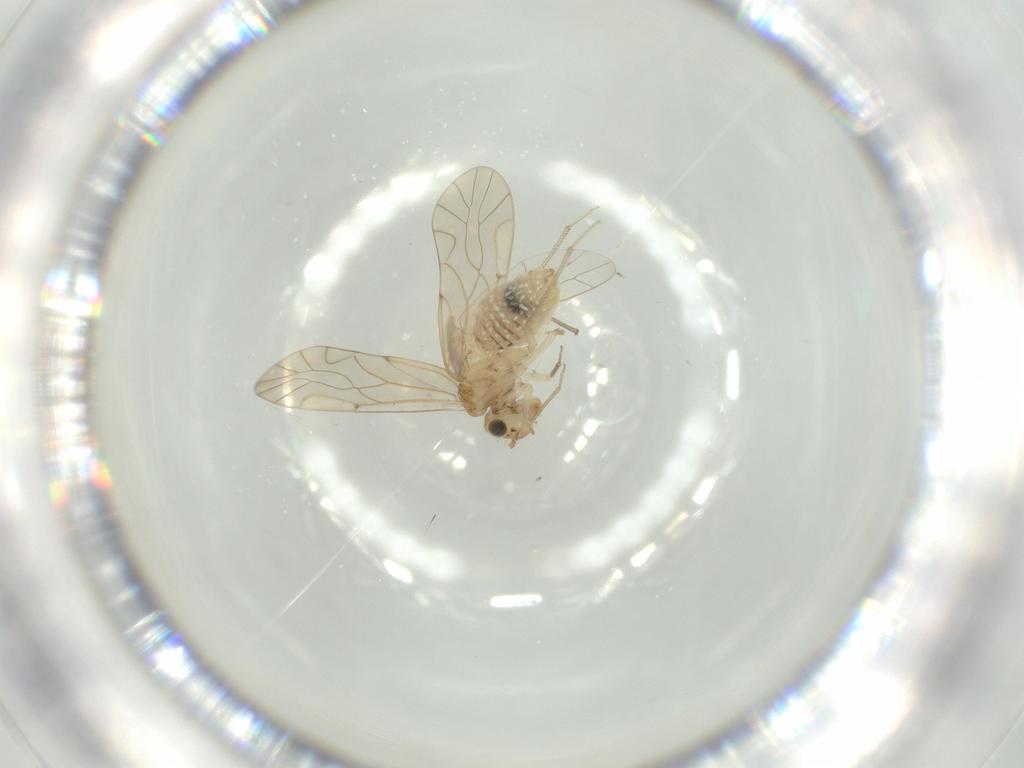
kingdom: Animalia
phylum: Arthropoda
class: Insecta
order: Psocodea
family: Lachesillidae
